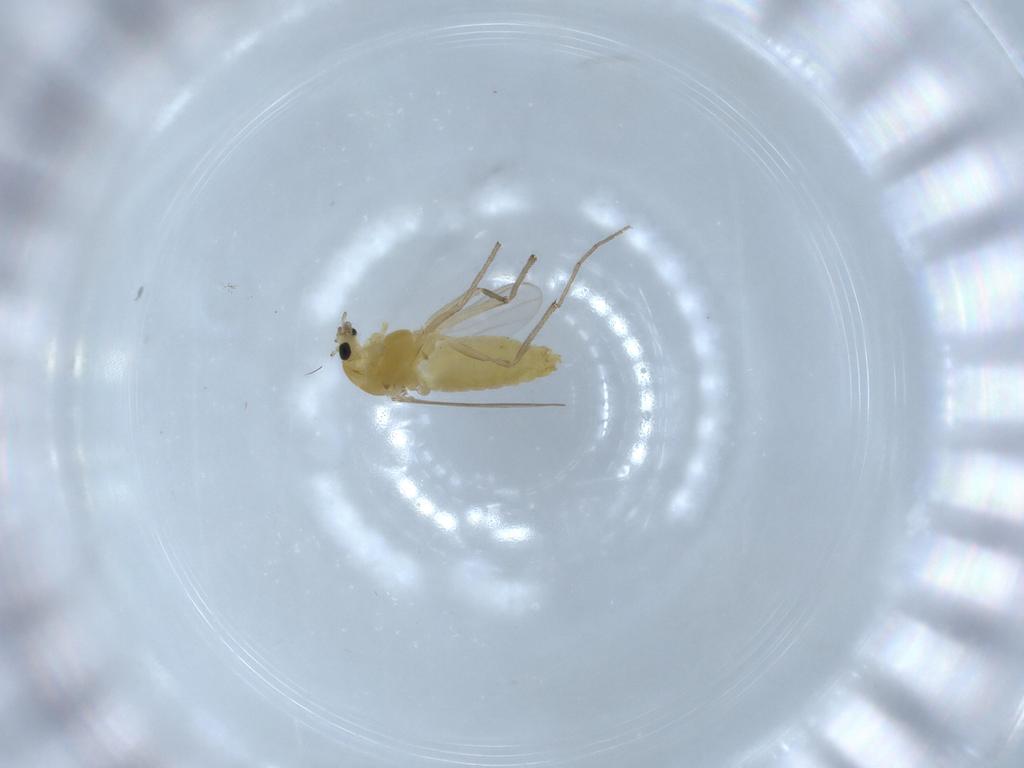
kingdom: Animalia
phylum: Arthropoda
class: Insecta
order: Diptera
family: Chironomidae
